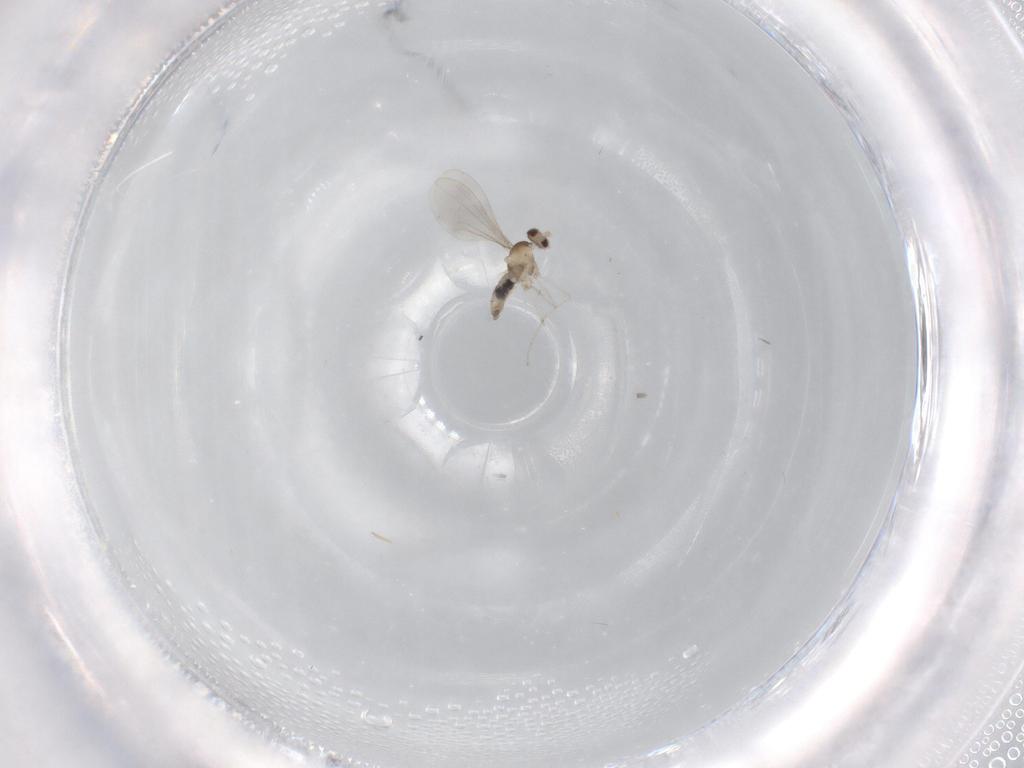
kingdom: Animalia
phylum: Arthropoda
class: Insecta
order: Diptera
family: Cecidomyiidae
